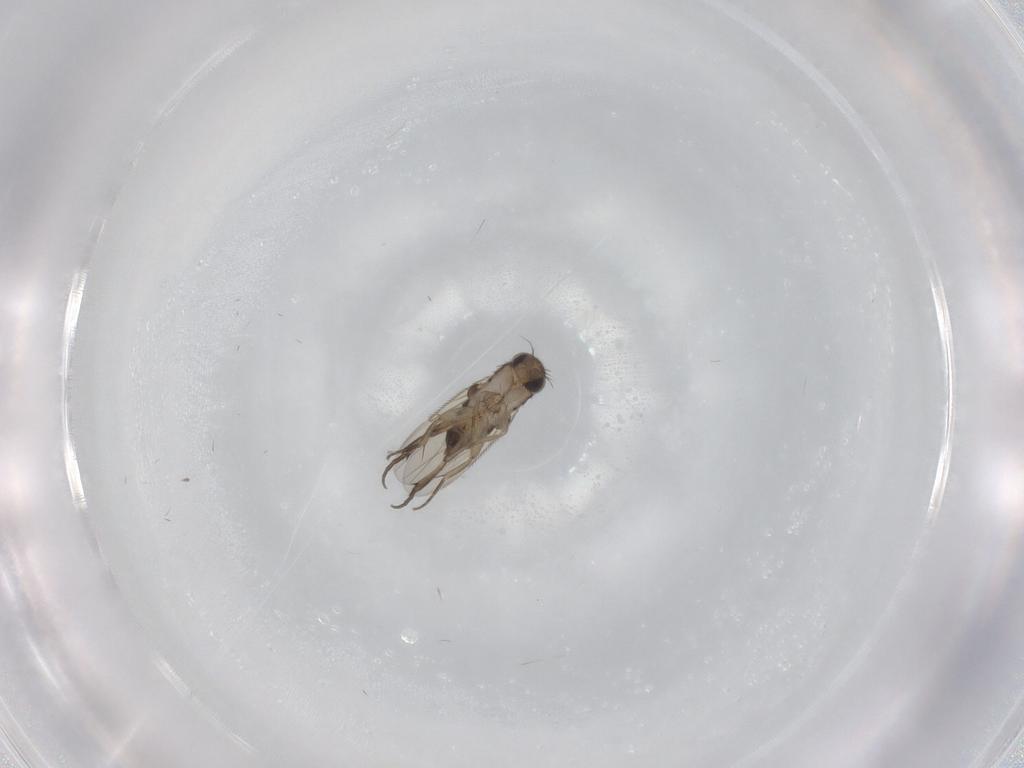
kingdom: Animalia
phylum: Arthropoda
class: Insecta
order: Diptera
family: Phoridae
